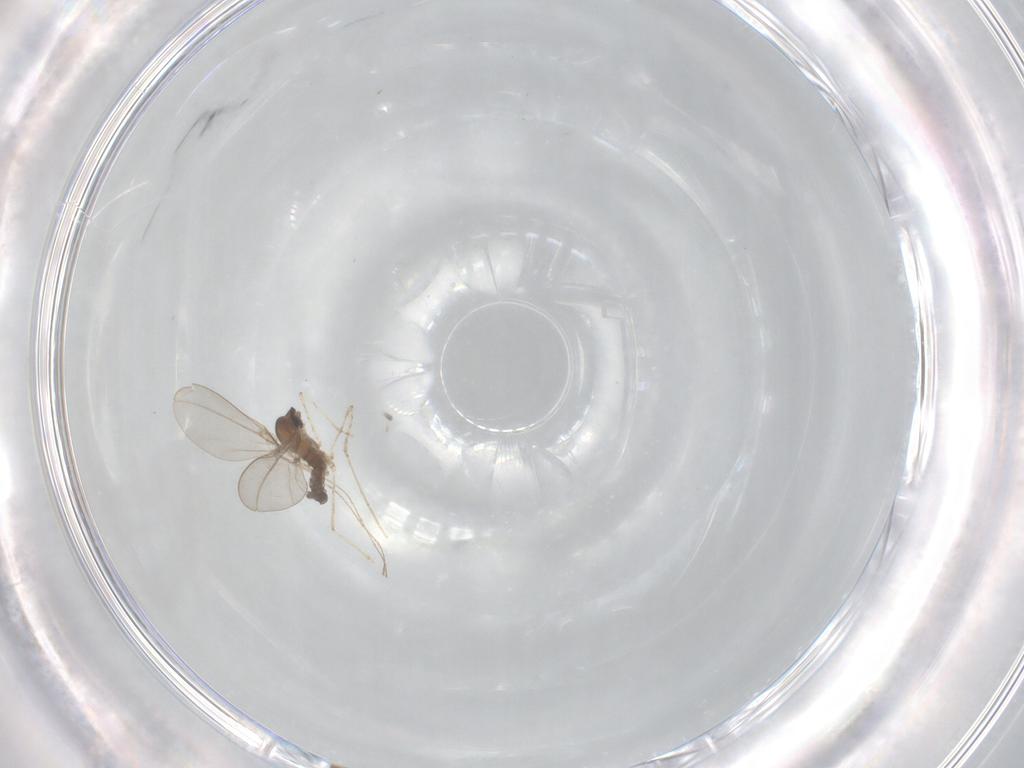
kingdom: Animalia
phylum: Arthropoda
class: Insecta
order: Diptera
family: Cecidomyiidae
